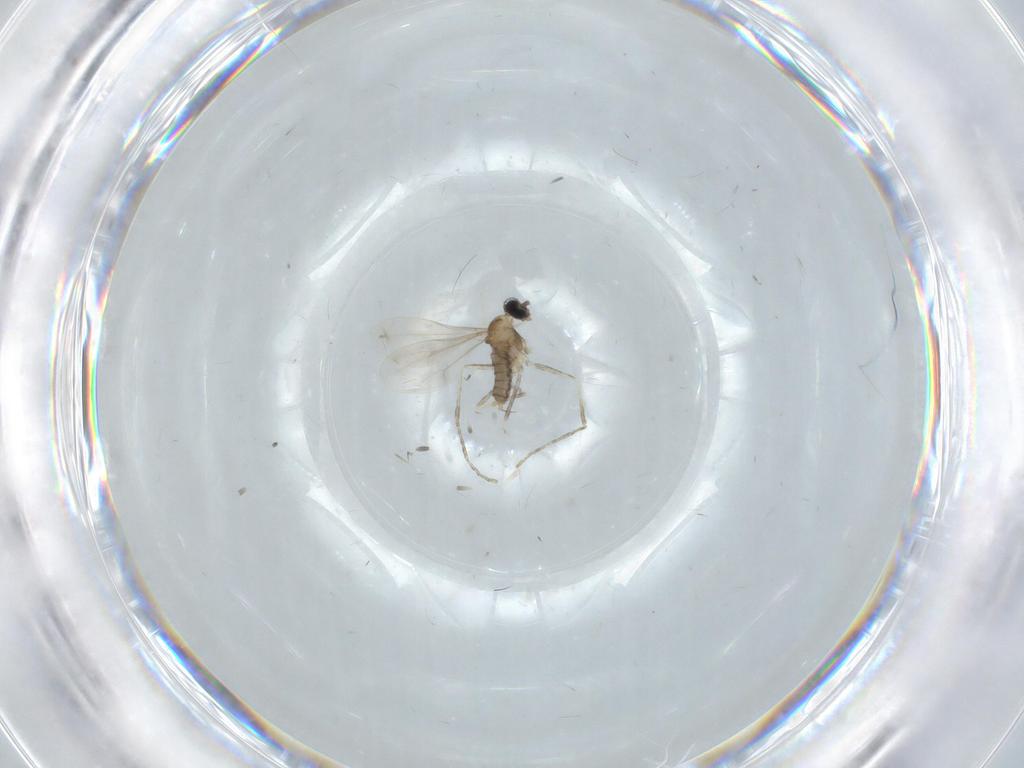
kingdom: Animalia
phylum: Arthropoda
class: Insecta
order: Diptera
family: Cecidomyiidae
